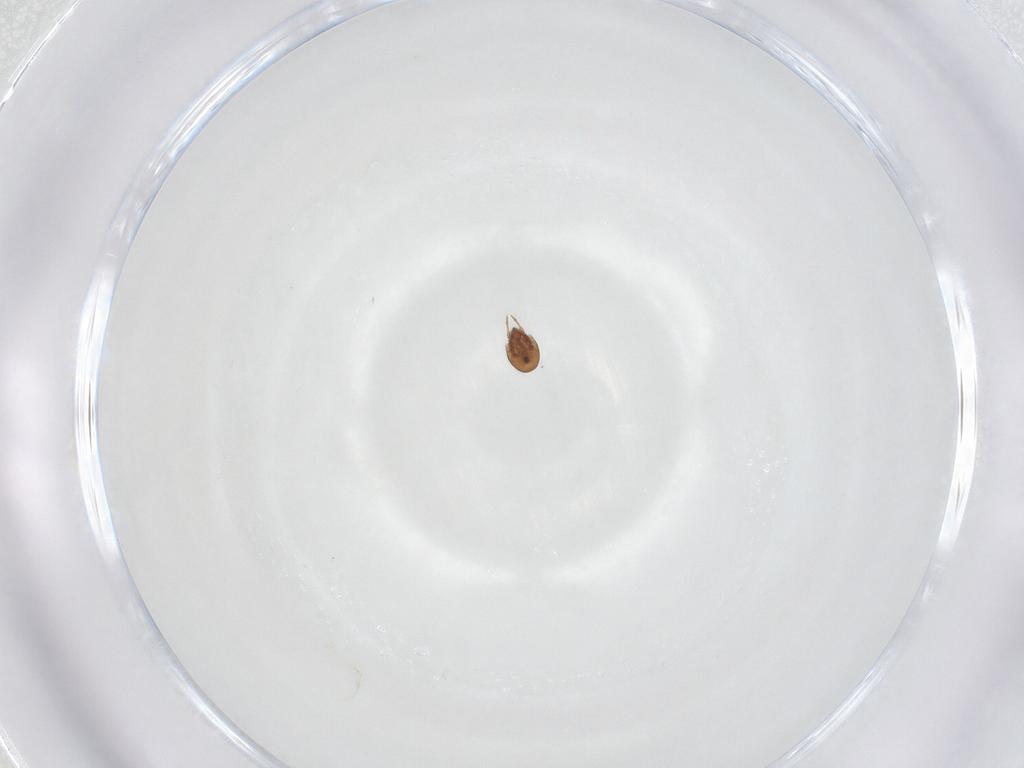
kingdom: Animalia
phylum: Arthropoda
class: Arachnida
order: Sarcoptiformes
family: Scheloribatidae
